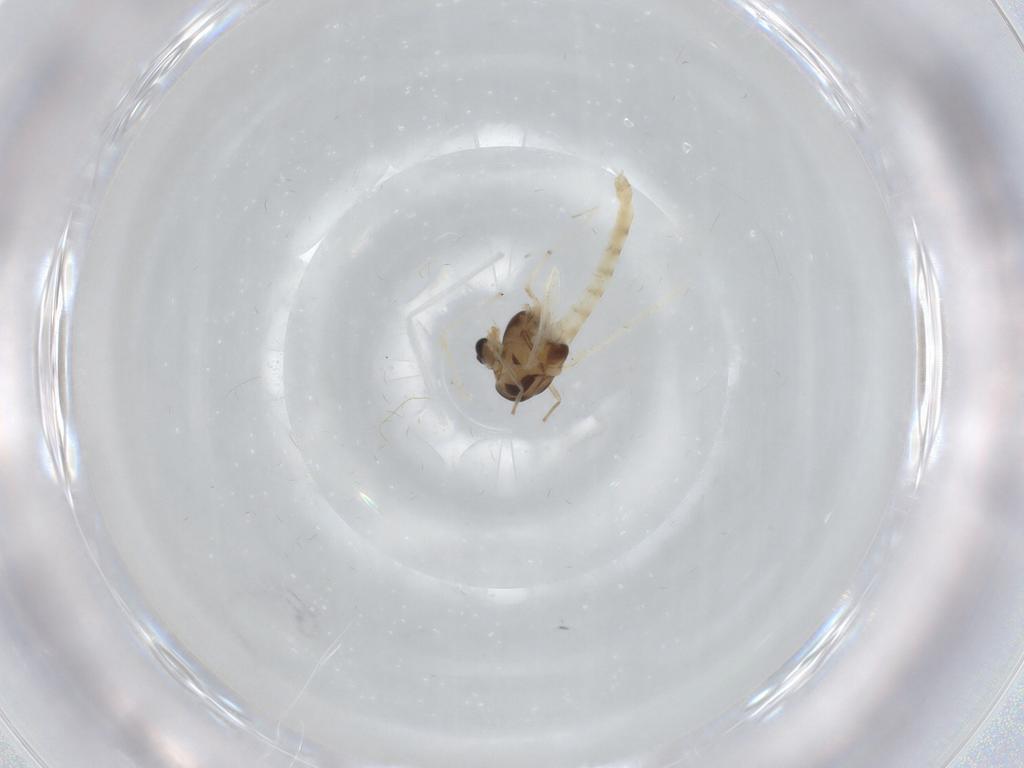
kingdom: Animalia
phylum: Arthropoda
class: Insecta
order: Diptera
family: Chironomidae
